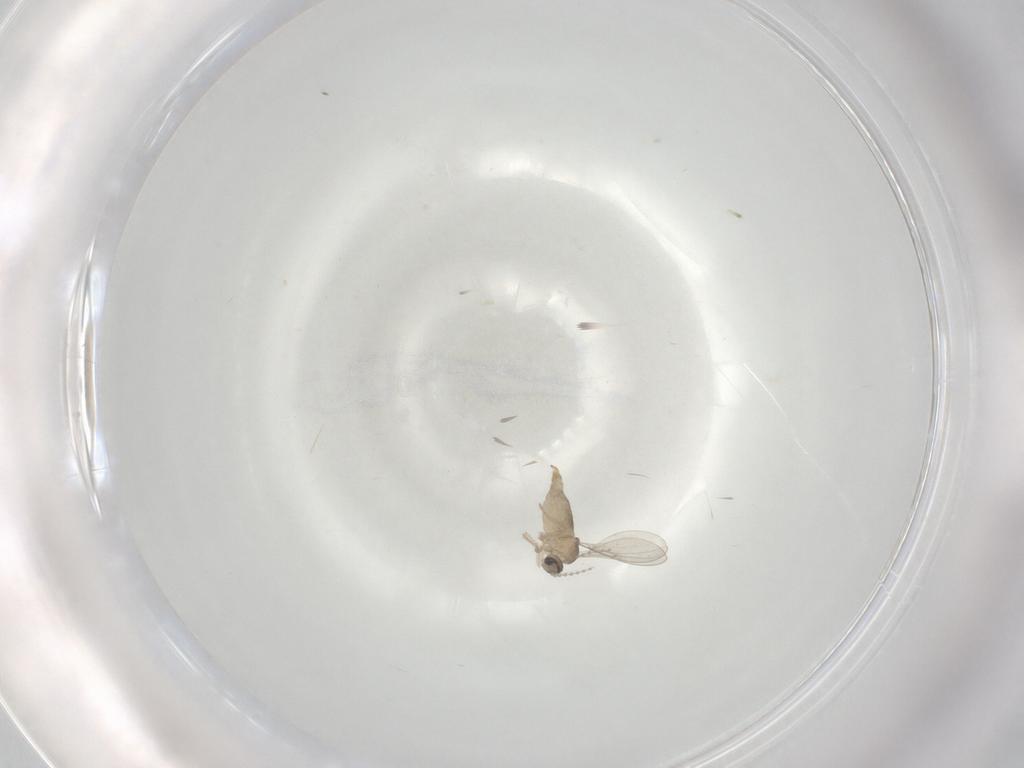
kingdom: Animalia
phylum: Arthropoda
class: Insecta
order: Diptera
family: Cecidomyiidae
